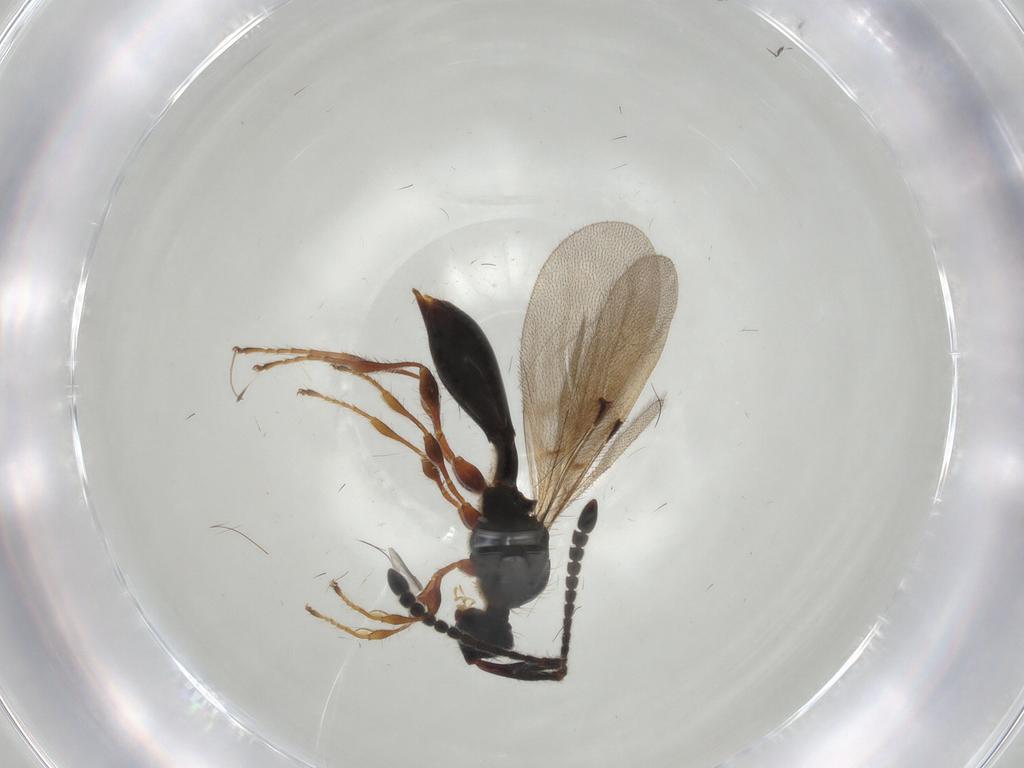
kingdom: Animalia
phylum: Arthropoda
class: Insecta
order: Hymenoptera
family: Diapriidae
